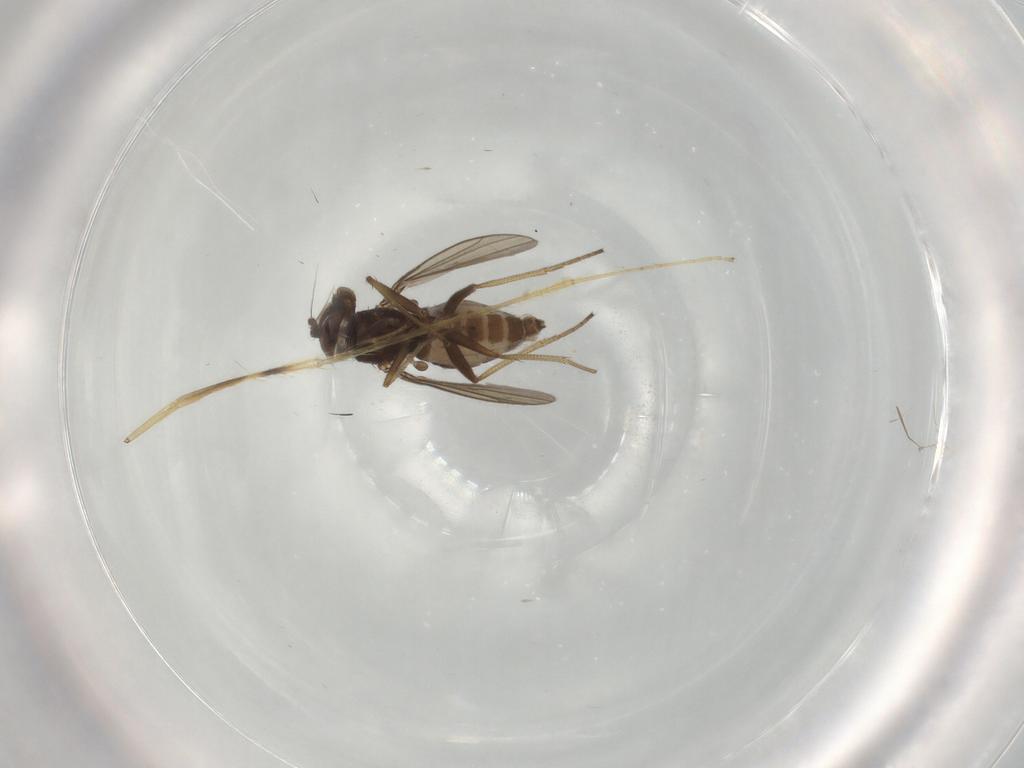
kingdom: Animalia
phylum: Arthropoda
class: Insecta
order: Diptera
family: Dolichopodidae
